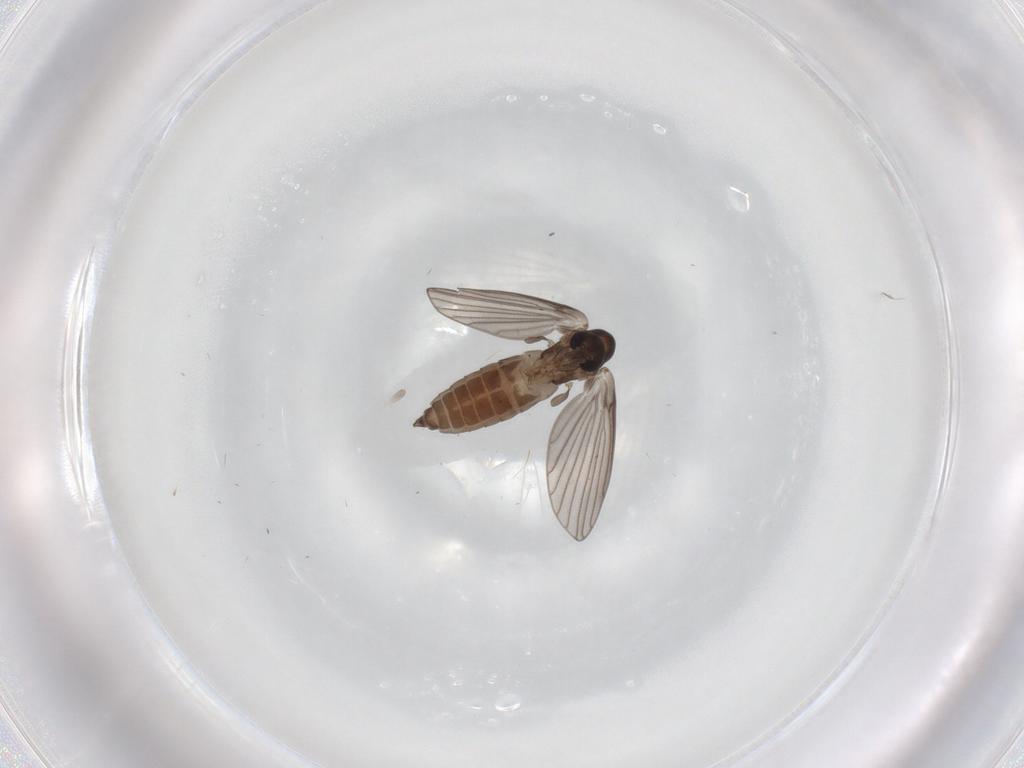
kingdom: Animalia
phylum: Arthropoda
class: Insecta
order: Diptera
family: Cecidomyiidae
